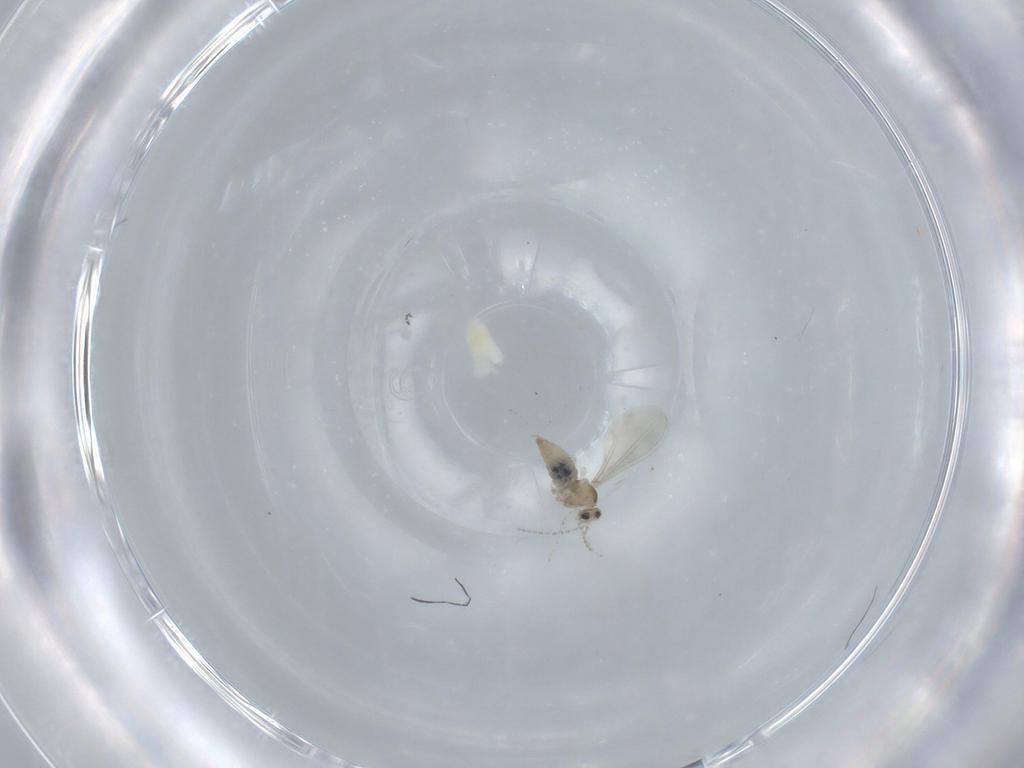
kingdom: Animalia
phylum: Arthropoda
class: Insecta
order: Diptera
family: Cecidomyiidae
